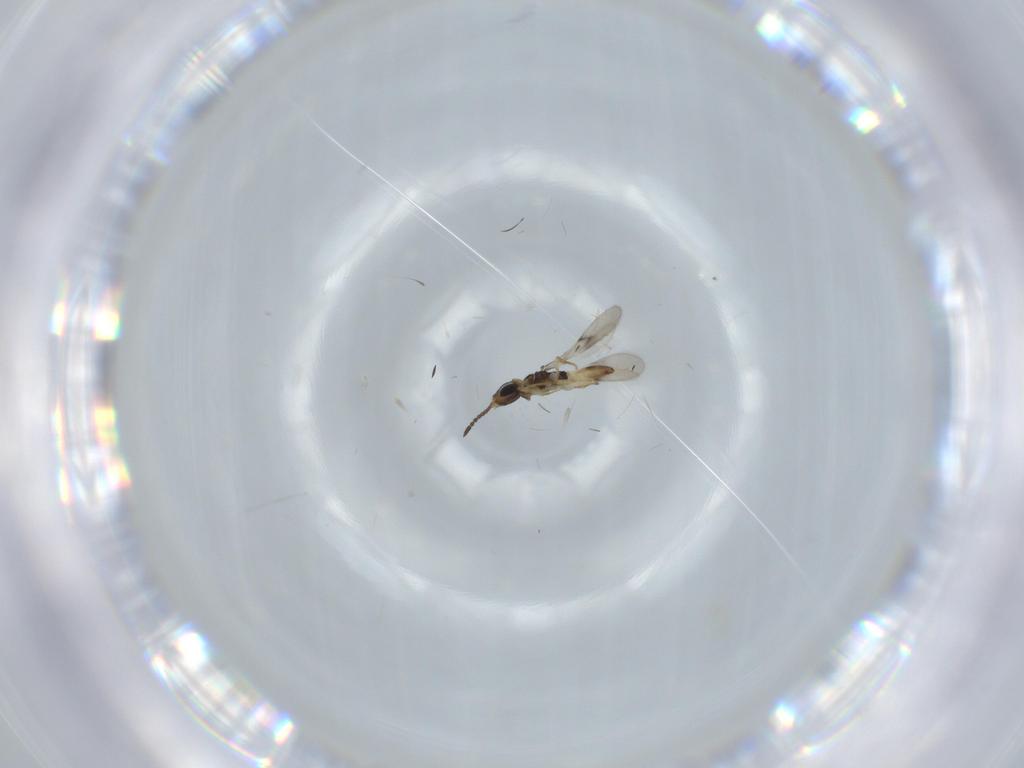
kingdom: Animalia
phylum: Arthropoda
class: Insecta
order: Hymenoptera
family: Scelionidae
